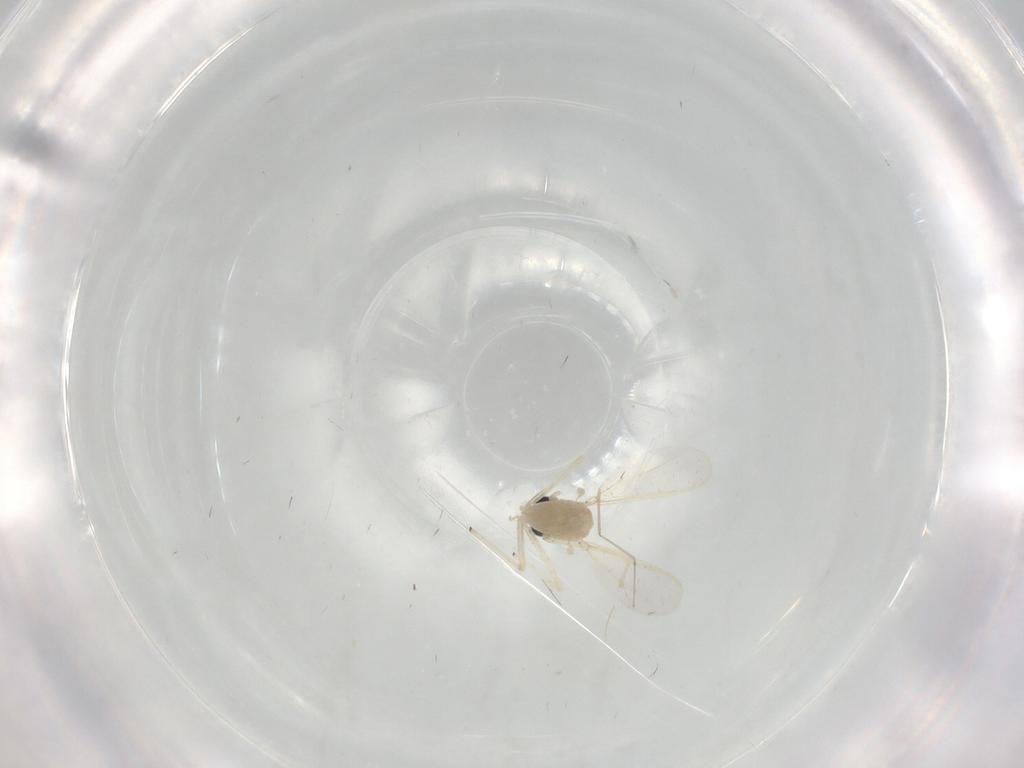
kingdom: Animalia
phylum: Arthropoda
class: Insecta
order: Diptera
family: Cecidomyiidae
